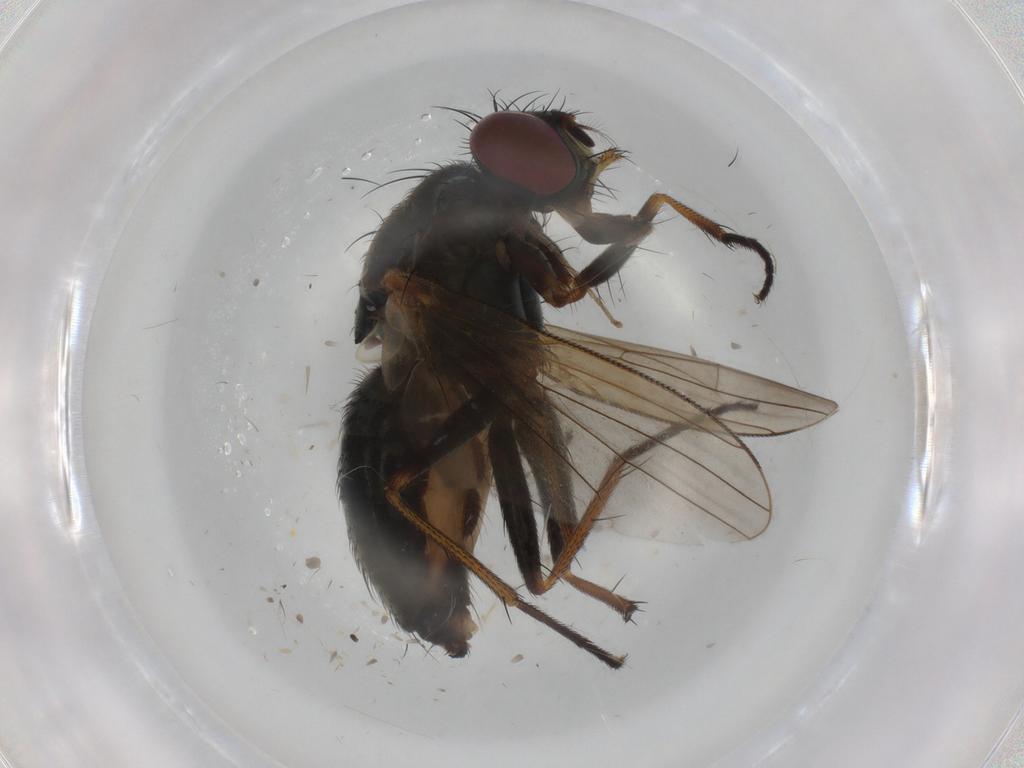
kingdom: Animalia
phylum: Arthropoda
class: Insecta
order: Diptera
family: Muscidae
